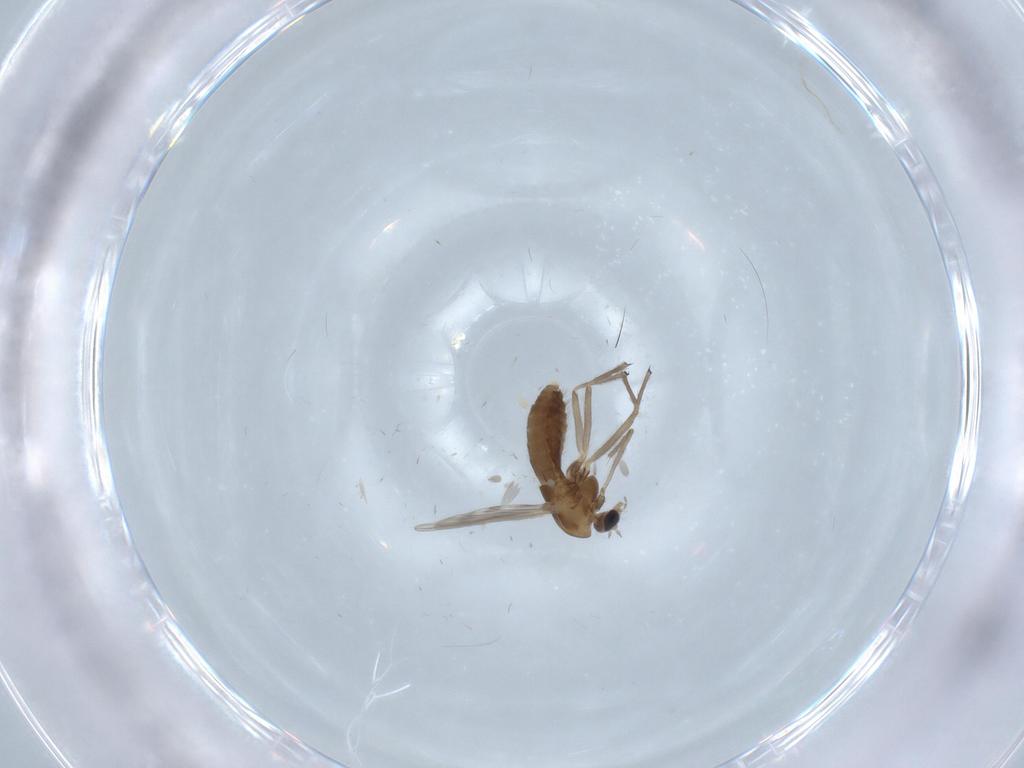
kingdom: Animalia
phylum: Arthropoda
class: Insecta
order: Diptera
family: Chironomidae
